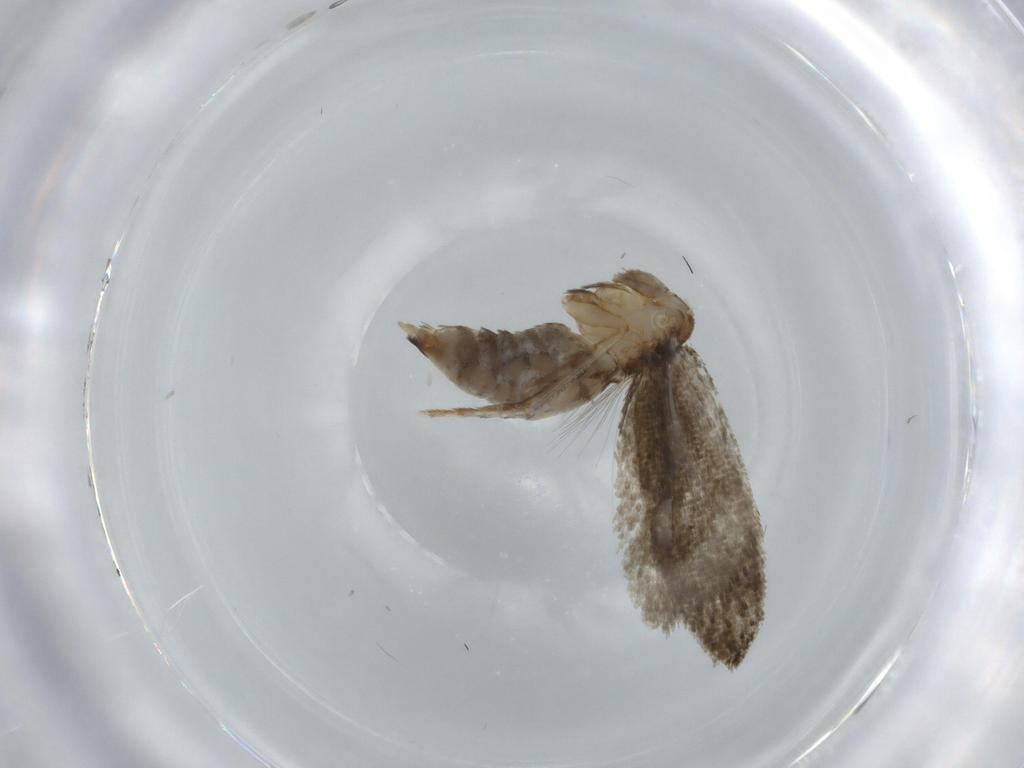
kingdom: Animalia
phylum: Arthropoda
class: Insecta
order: Lepidoptera
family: Tineidae
